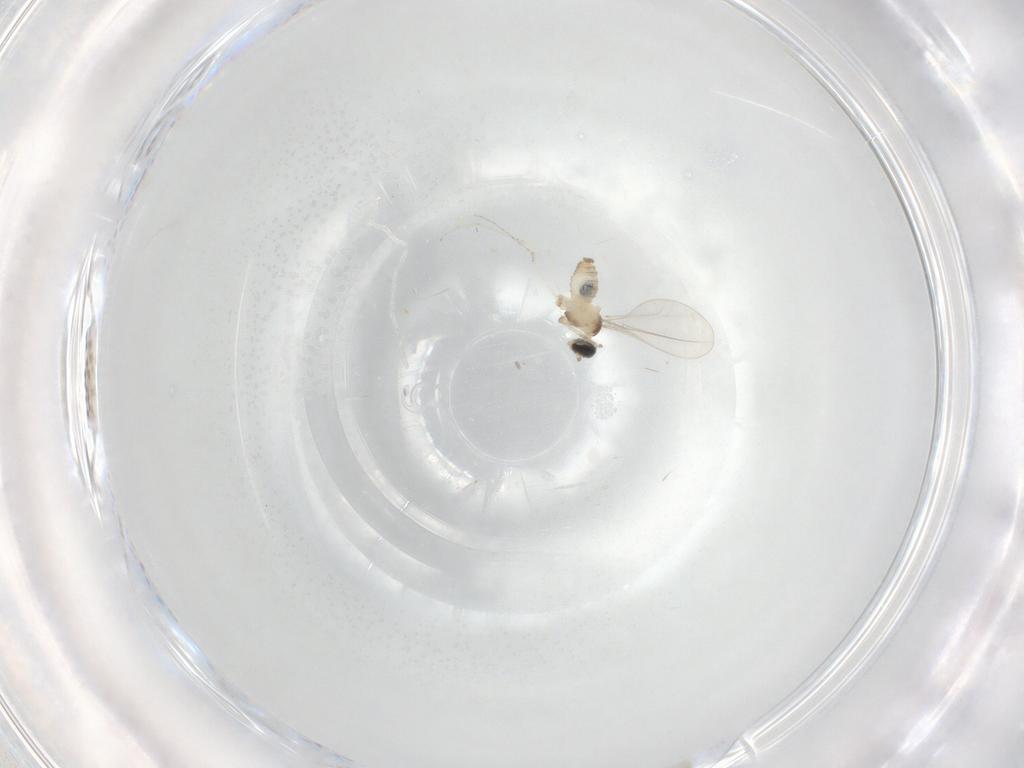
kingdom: Animalia
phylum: Arthropoda
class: Insecta
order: Diptera
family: Cecidomyiidae
